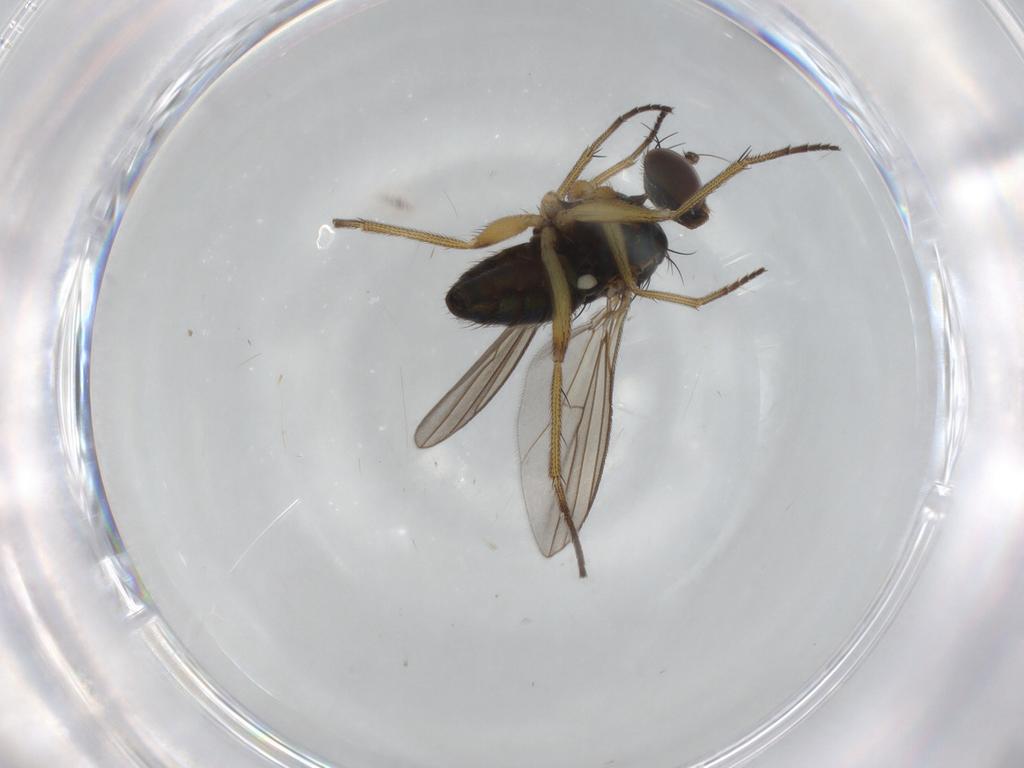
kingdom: Animalia
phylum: Arthropoda
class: Insecta
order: Diptera
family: Dolichopodidae
